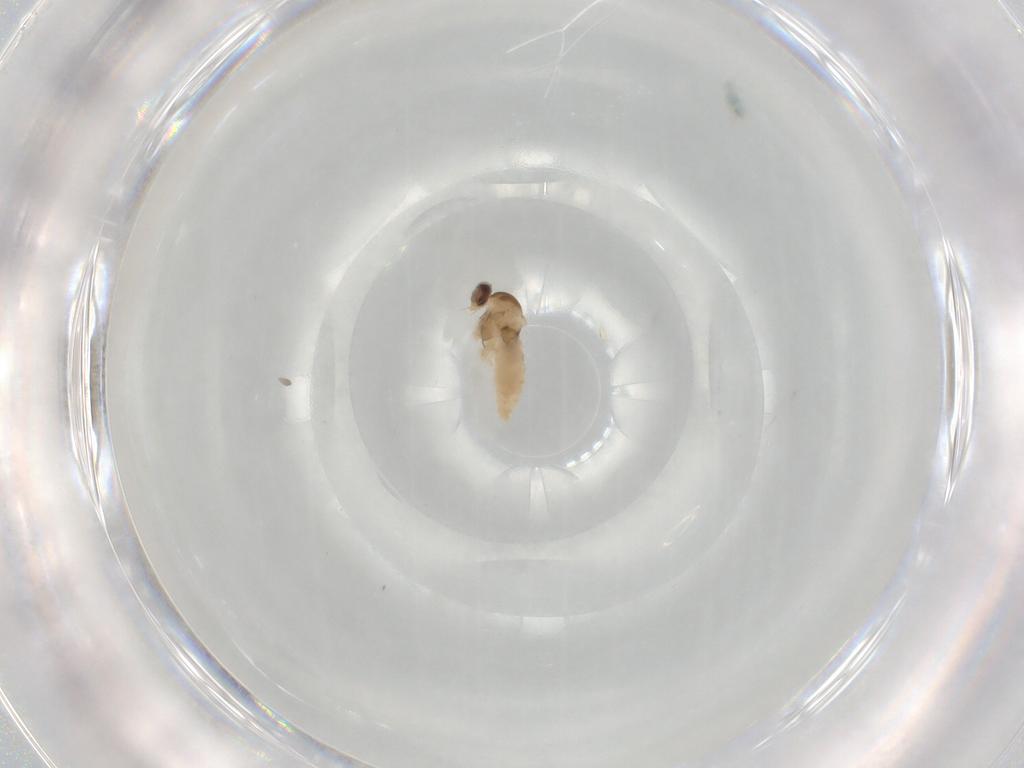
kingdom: Animalia
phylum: Arthropoda
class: Insecta
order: Diptera
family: Cecidomyiidae
